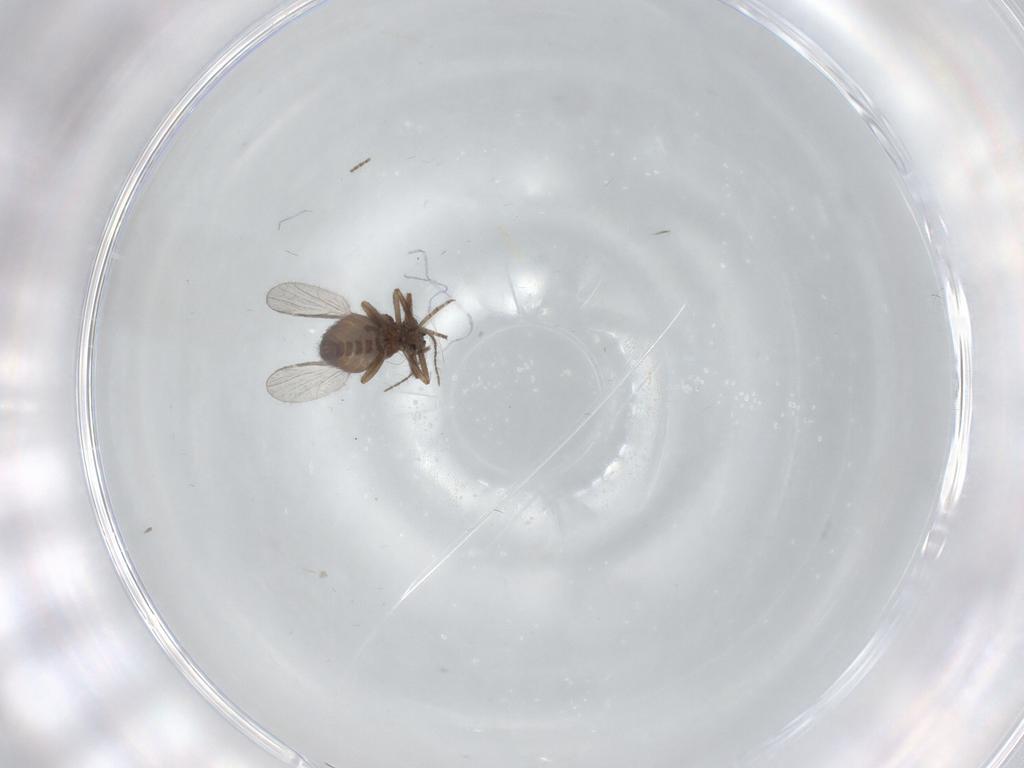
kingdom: Animalia
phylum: Arthropoda
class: Insecta
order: Diptera
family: Ceratopogonidae
